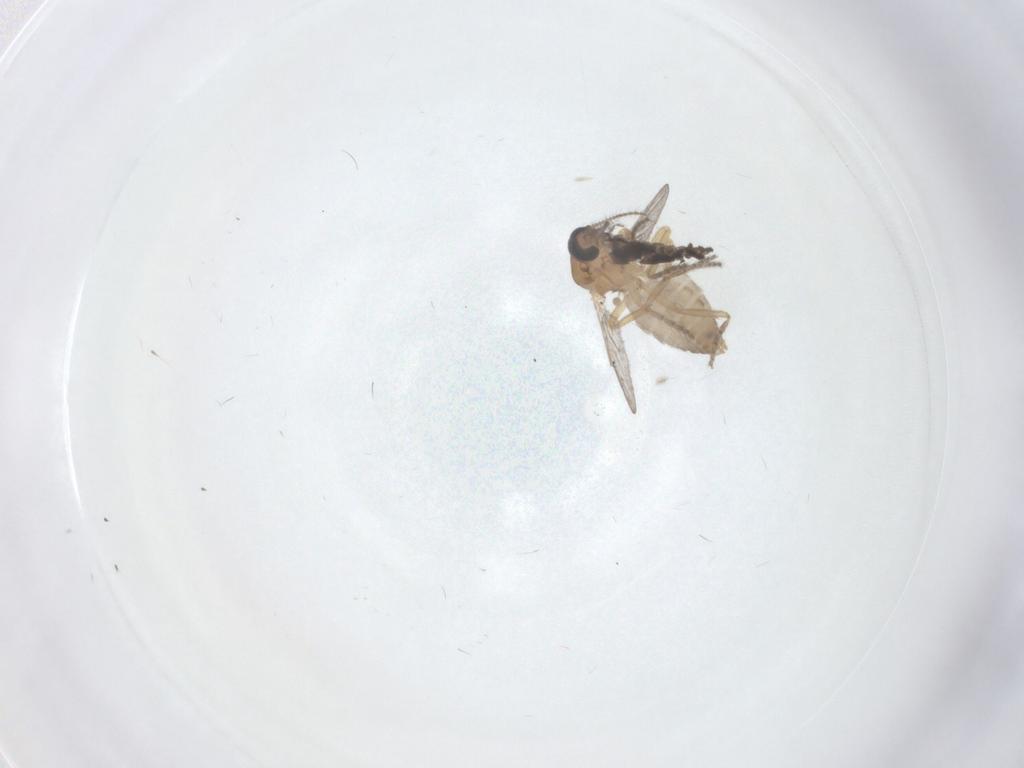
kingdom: Animalia
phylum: Arthropoda
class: Insecta
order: Diptera
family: Ceratopogonidae
